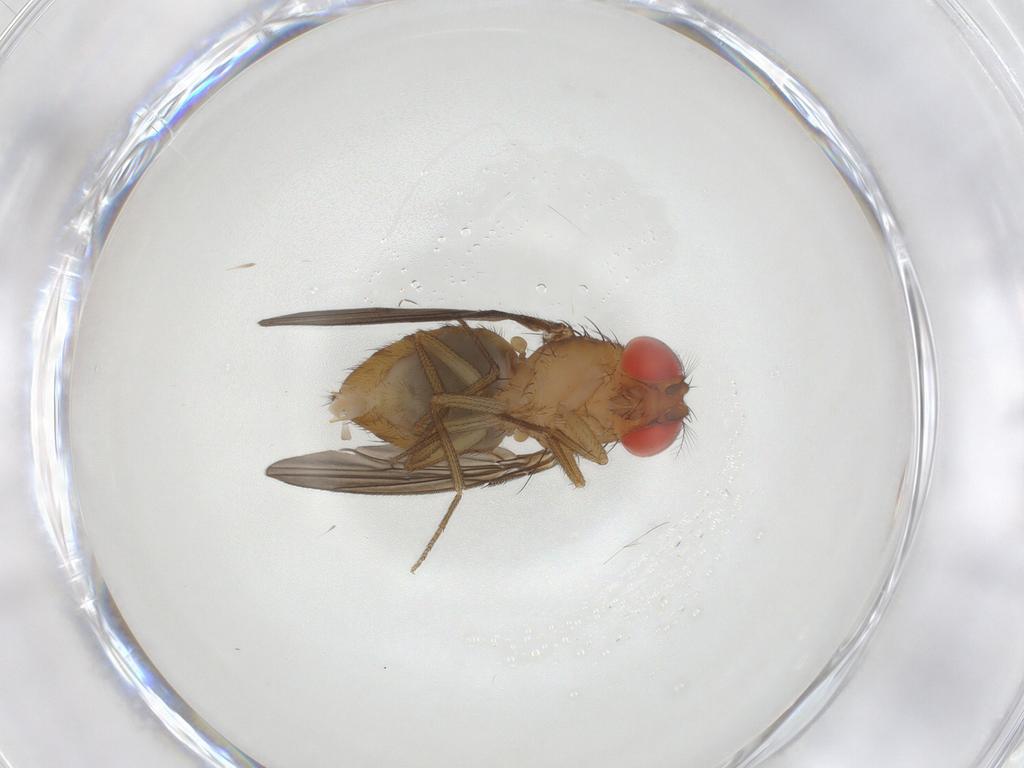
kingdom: Animalia
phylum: Arthropoda
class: Insecta
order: Diptera
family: Drosophilidae
